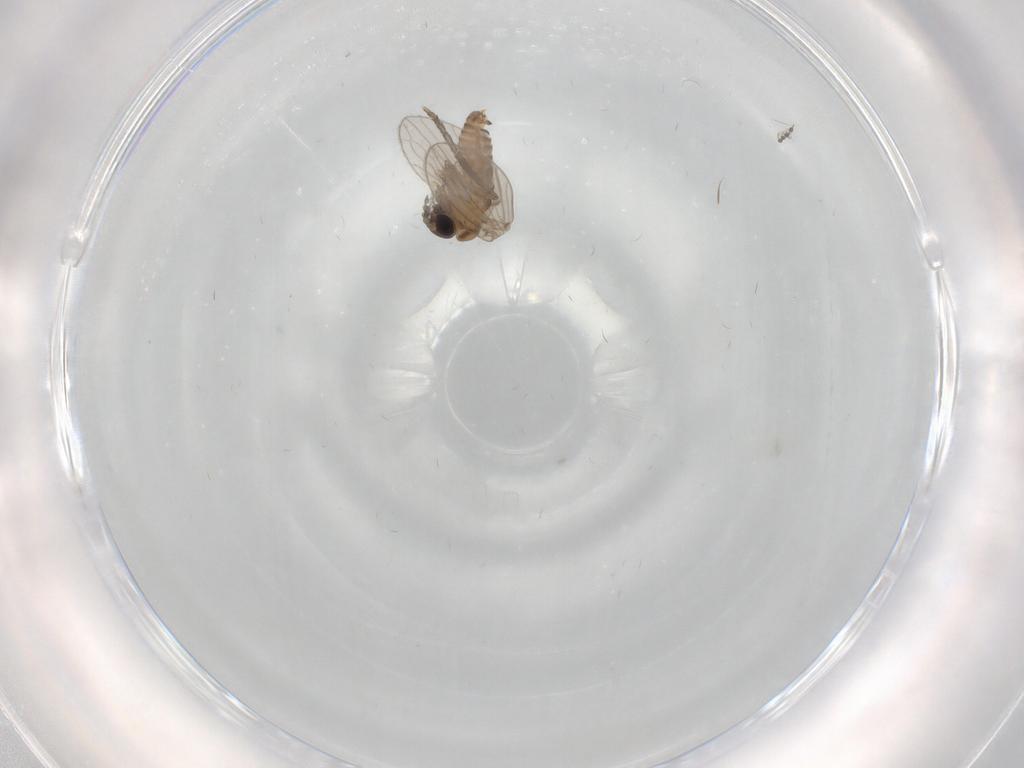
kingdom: Animalia
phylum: Arthropoda
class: Insecta
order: Diptera
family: Psychodidae
